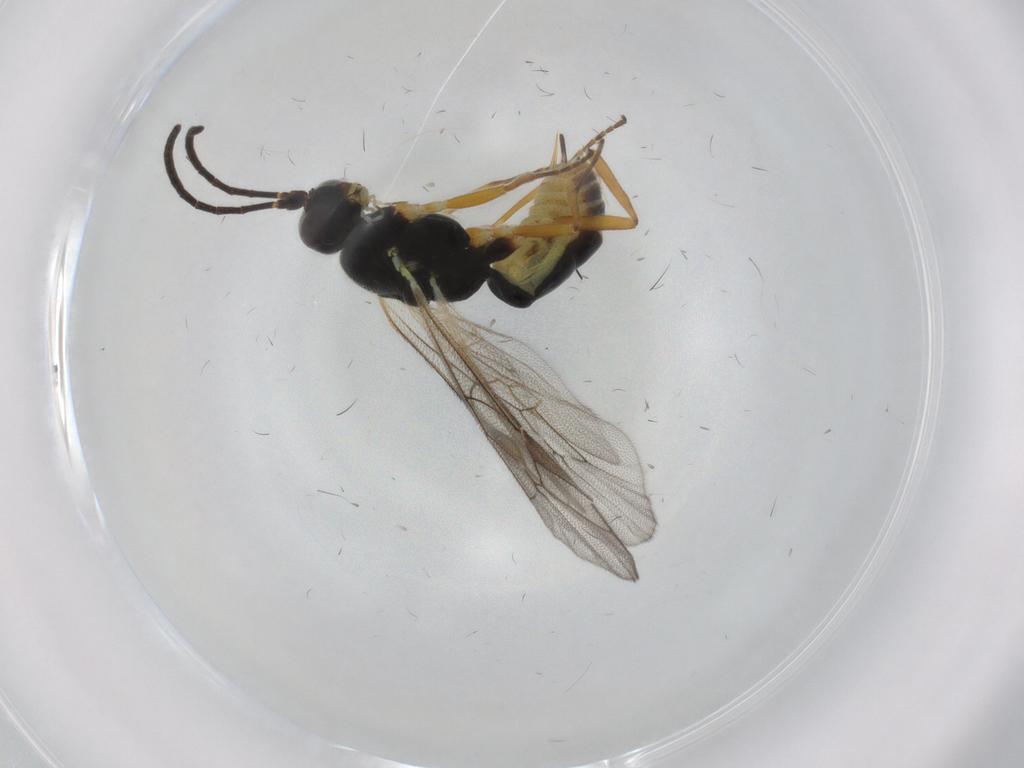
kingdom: Animalia
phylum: Arthropoda
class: Insecta
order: Hymenoptera
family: Ichneumonidae
